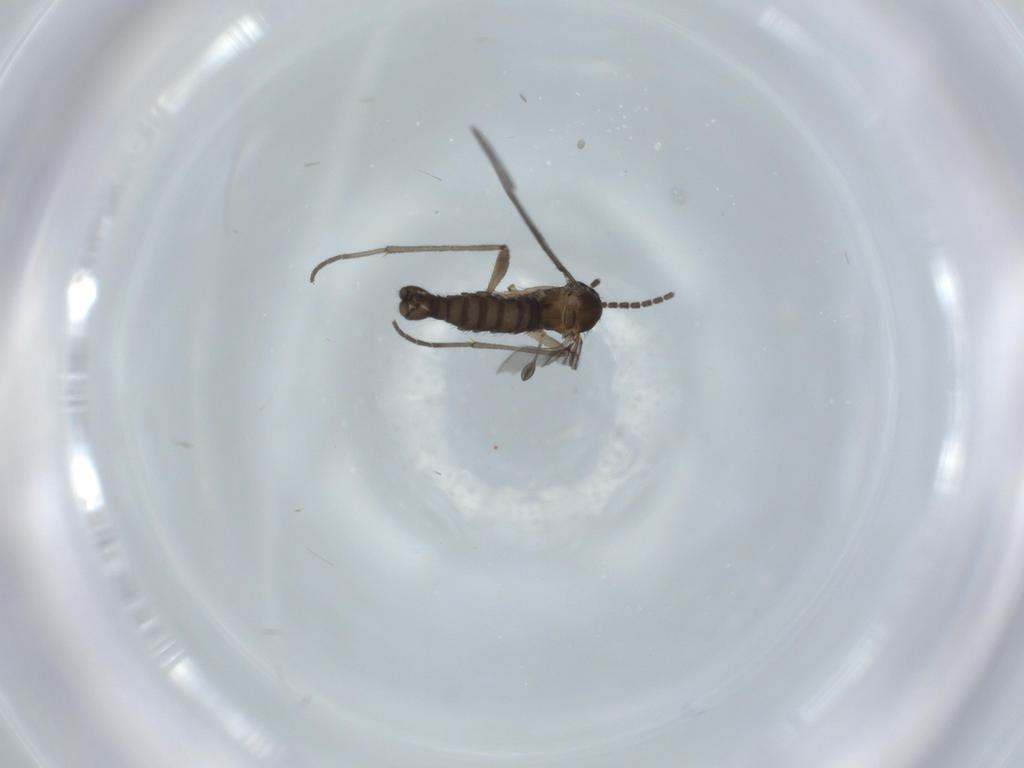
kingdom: Animalia
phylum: Arthropoda
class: Insecta
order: Diptera
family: Sciaridae
